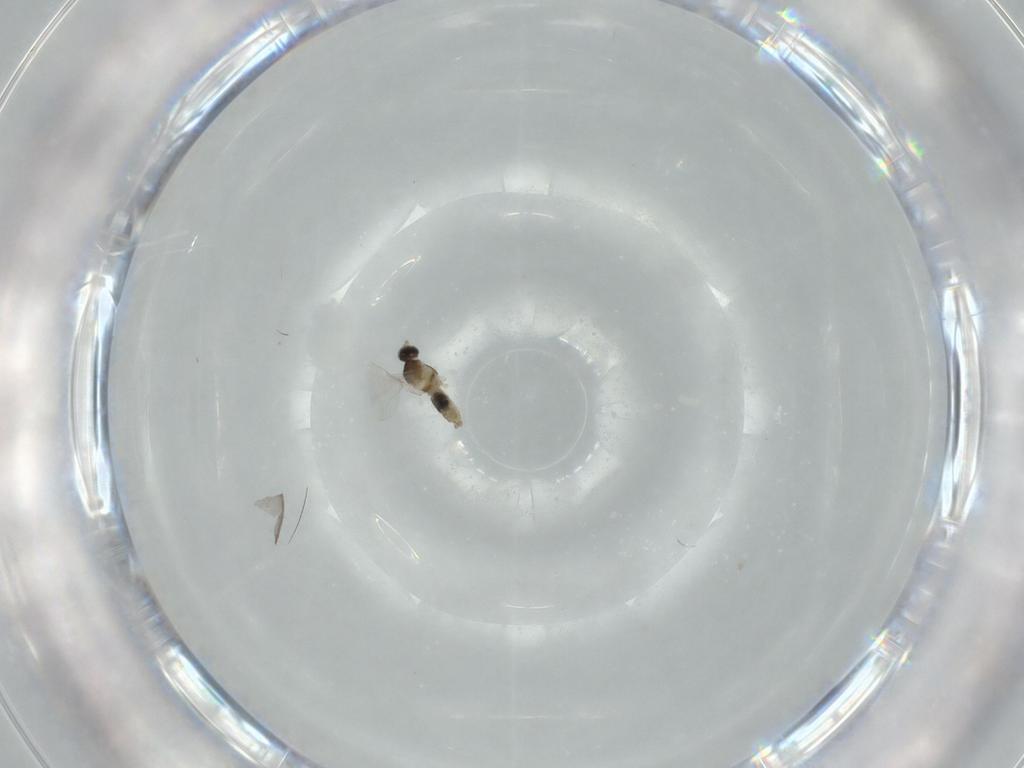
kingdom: Animalia
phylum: Arthropoda
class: Insecta
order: Diptera
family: Cecidomyiidae
